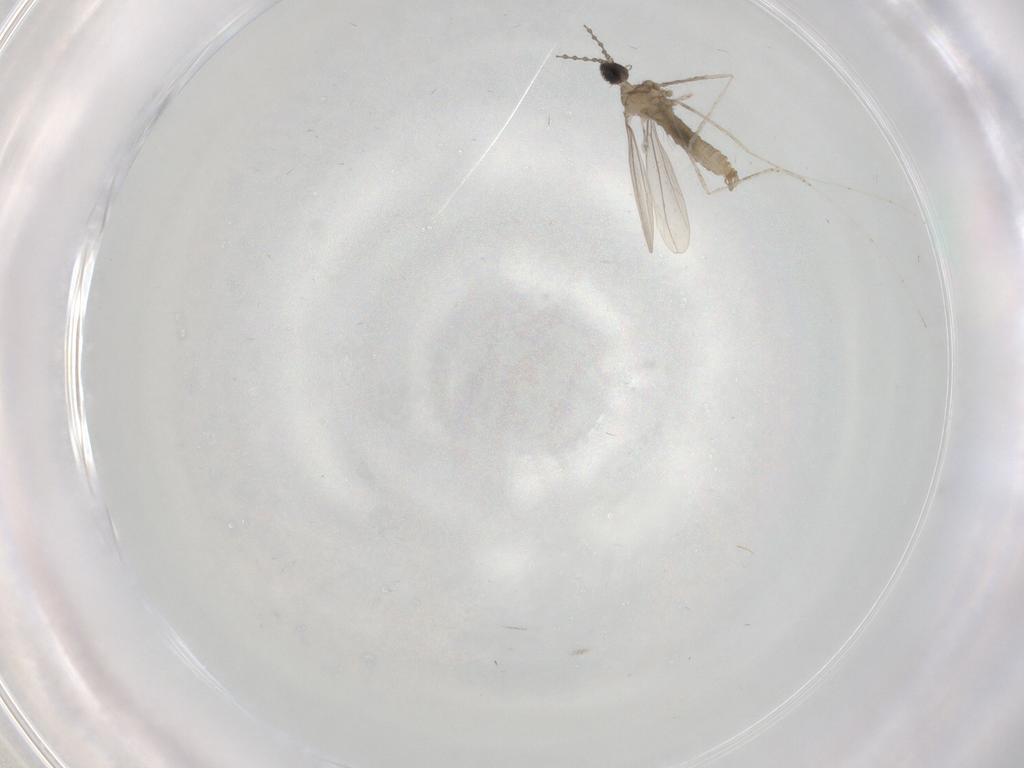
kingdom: Animalia
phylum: Arthropoda
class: Insecta
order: Diptera
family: Limoniidae
